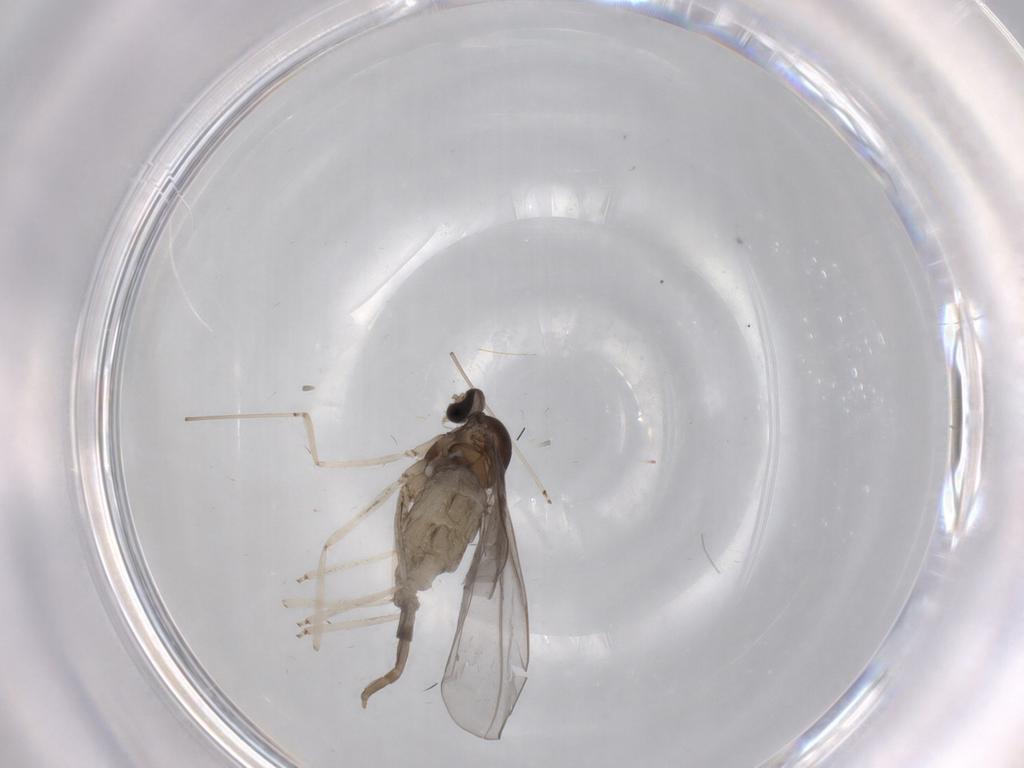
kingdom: Animalia
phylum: Arthropoda
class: Insecta
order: Diptera
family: Cecidomyiidae
